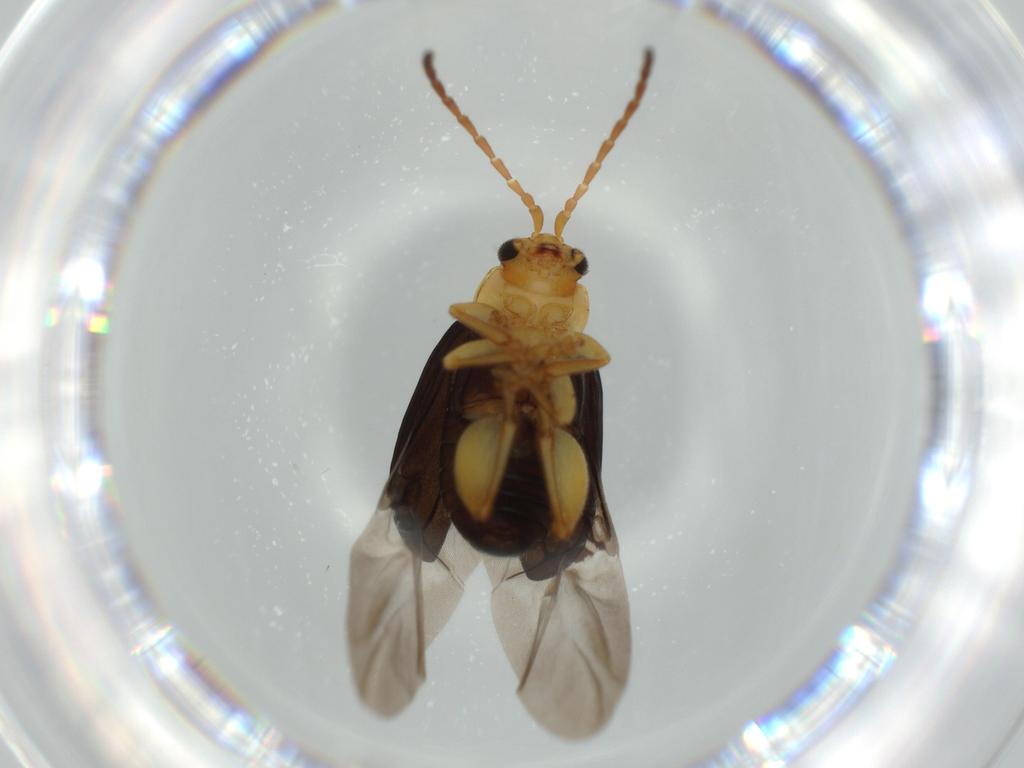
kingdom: Animalia
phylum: Arthropoda
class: Insecta
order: Coleoptera
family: Chrysomelidae
